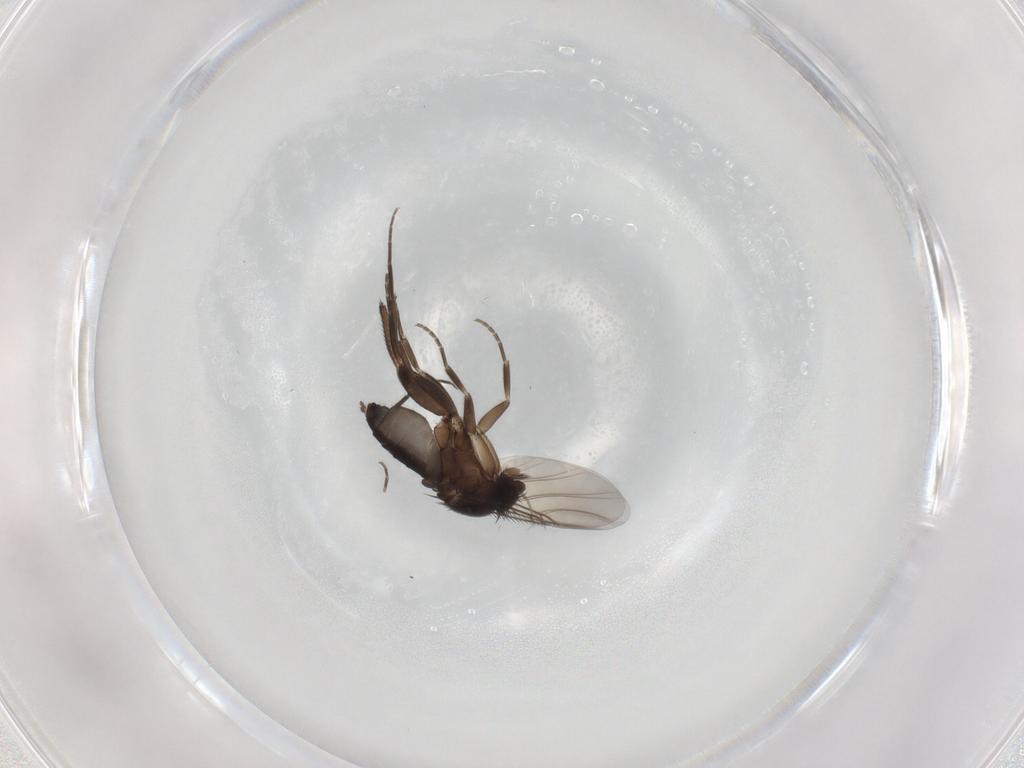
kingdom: Animalia
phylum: Arthropoda
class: Insecta
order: Diptera
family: Phoridae
